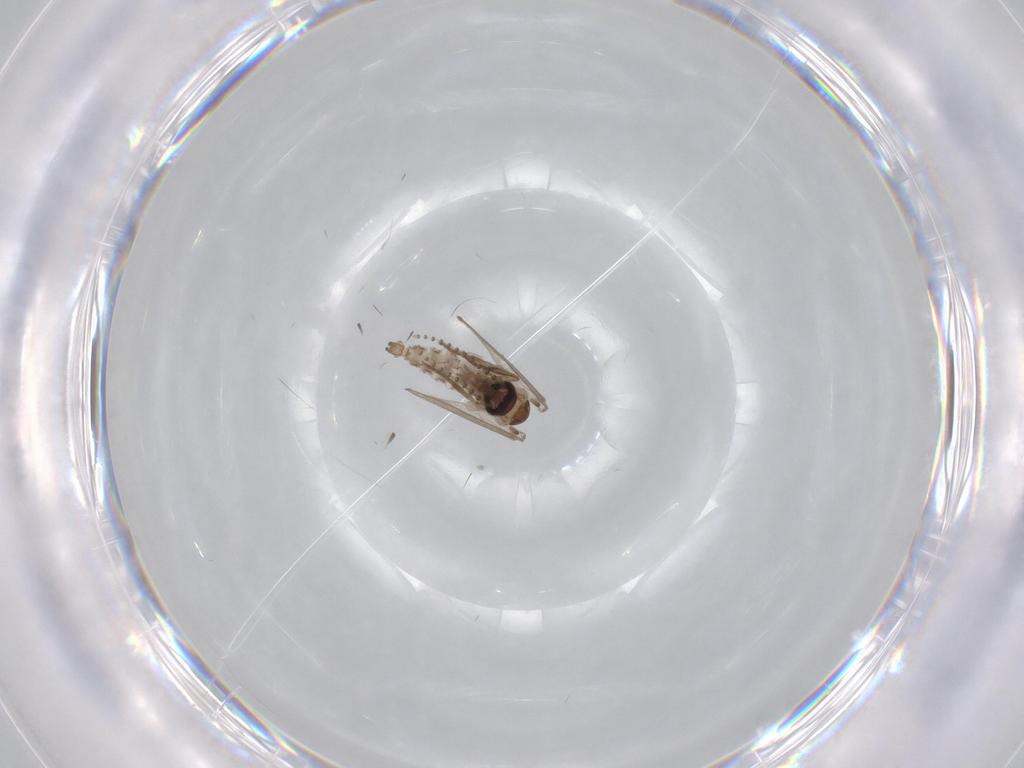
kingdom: Animalia
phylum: Arthropoda
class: Insecta
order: Diptera
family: Psychodidae
